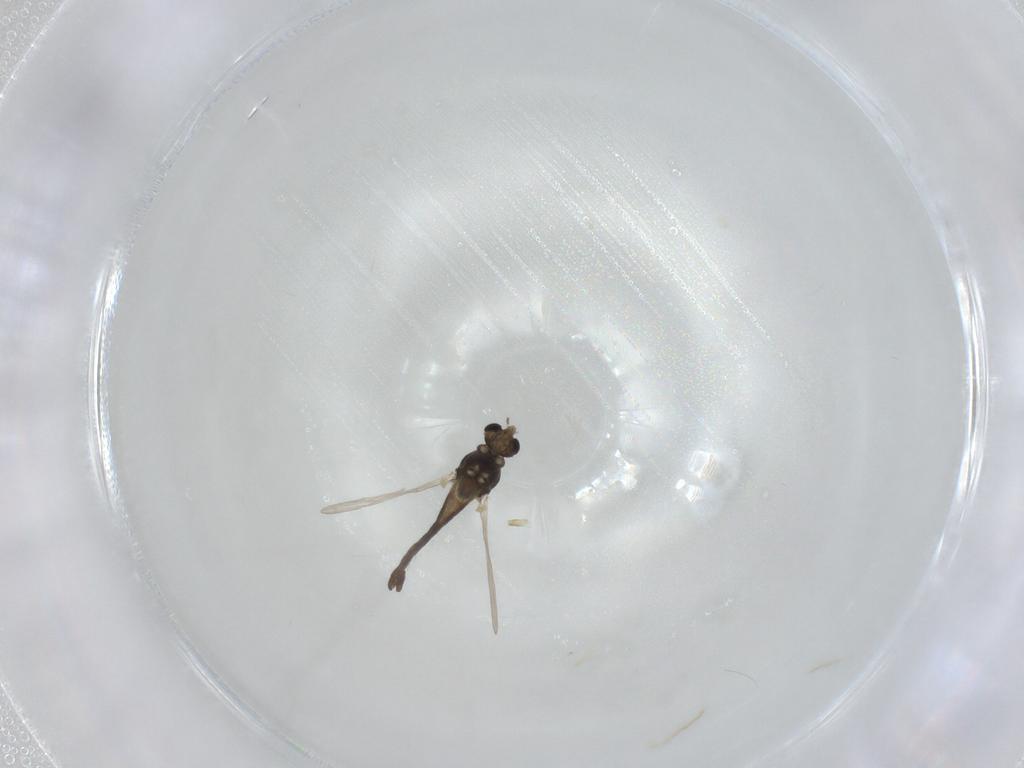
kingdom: Animalia
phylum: Arthropoda
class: Insecta
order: Diptera
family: Chironomidae
